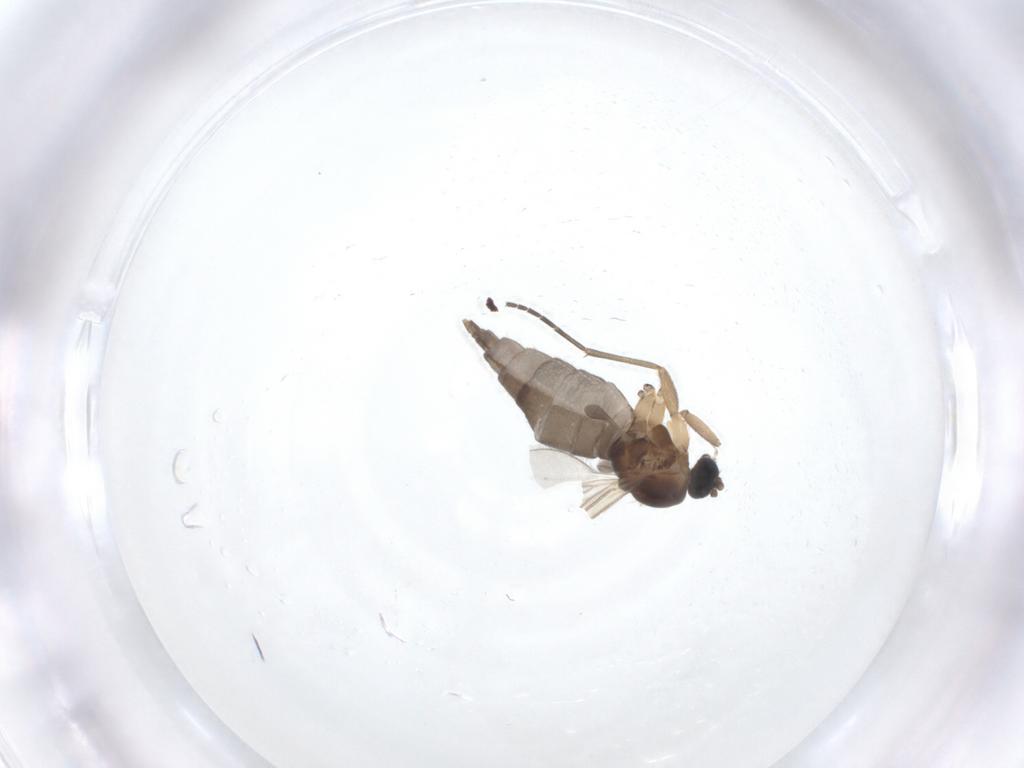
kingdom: Animalia
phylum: Arthropoda
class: Insecta
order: Diptera
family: Sciaridae
